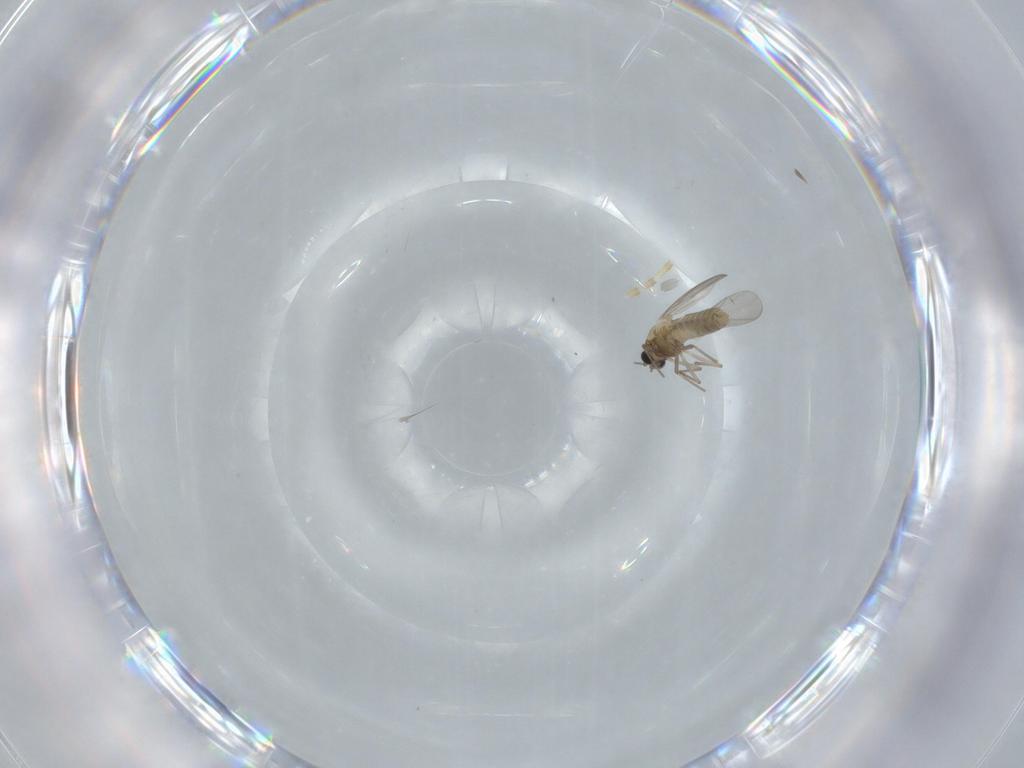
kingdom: Animalia
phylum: Arthropoda
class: Insecta
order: Diptera
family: Chironomidae
